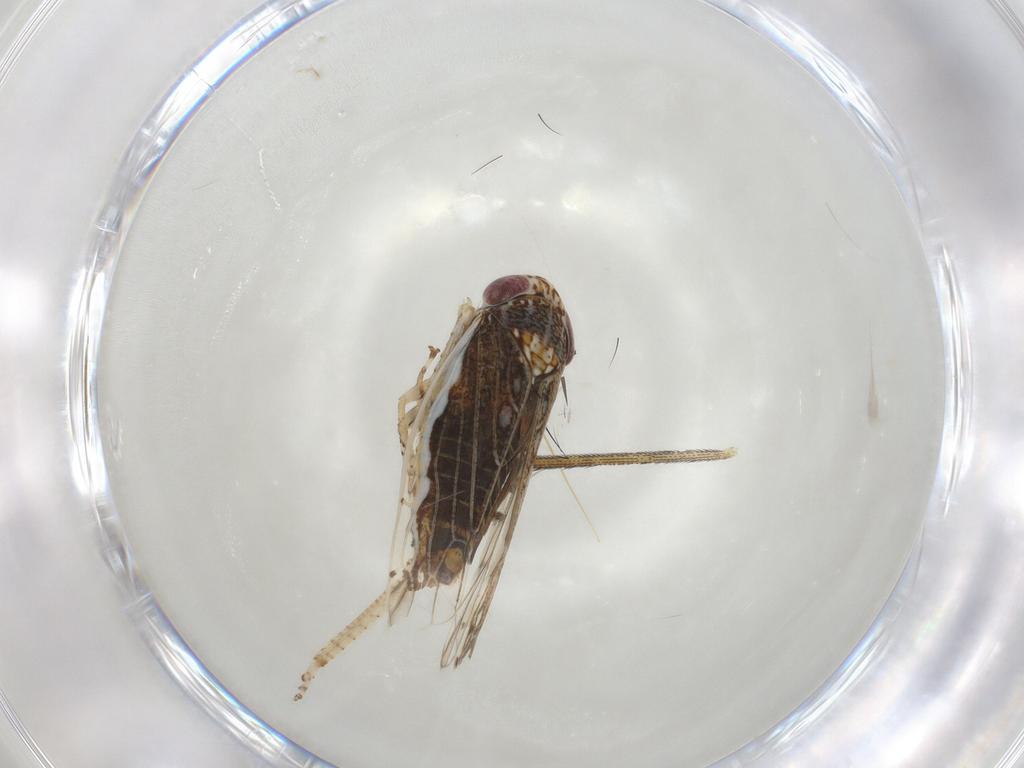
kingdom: Animalia
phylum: Arthropoda
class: Insecta
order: Hemiptera
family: Cicadellidae
